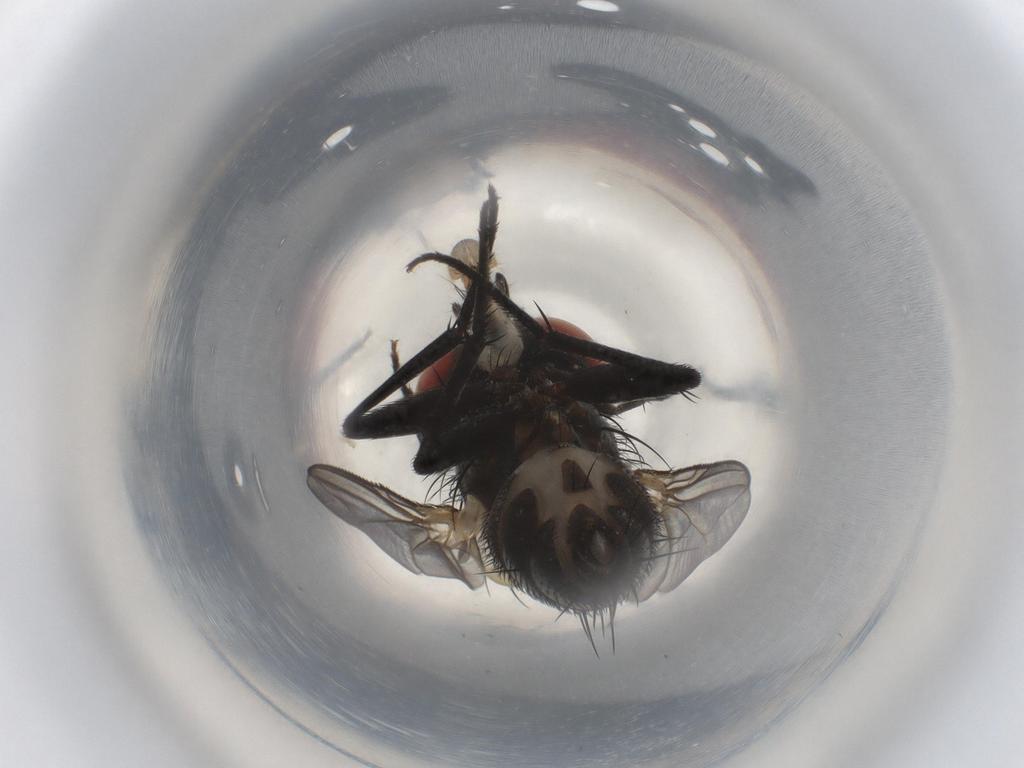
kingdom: Animalia
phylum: Arthropoda
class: Insecta
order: Diptera
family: Sarcophagidae
